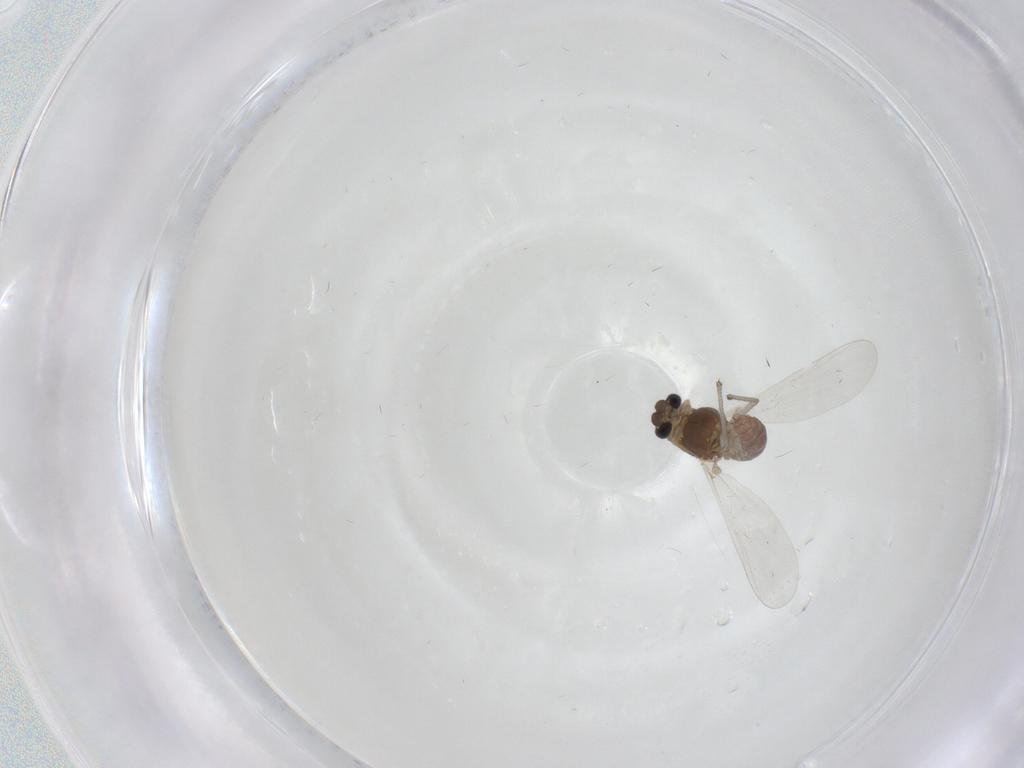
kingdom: Animalia
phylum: Arthropoda
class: Insecta
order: Diptera
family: Chironomidae
